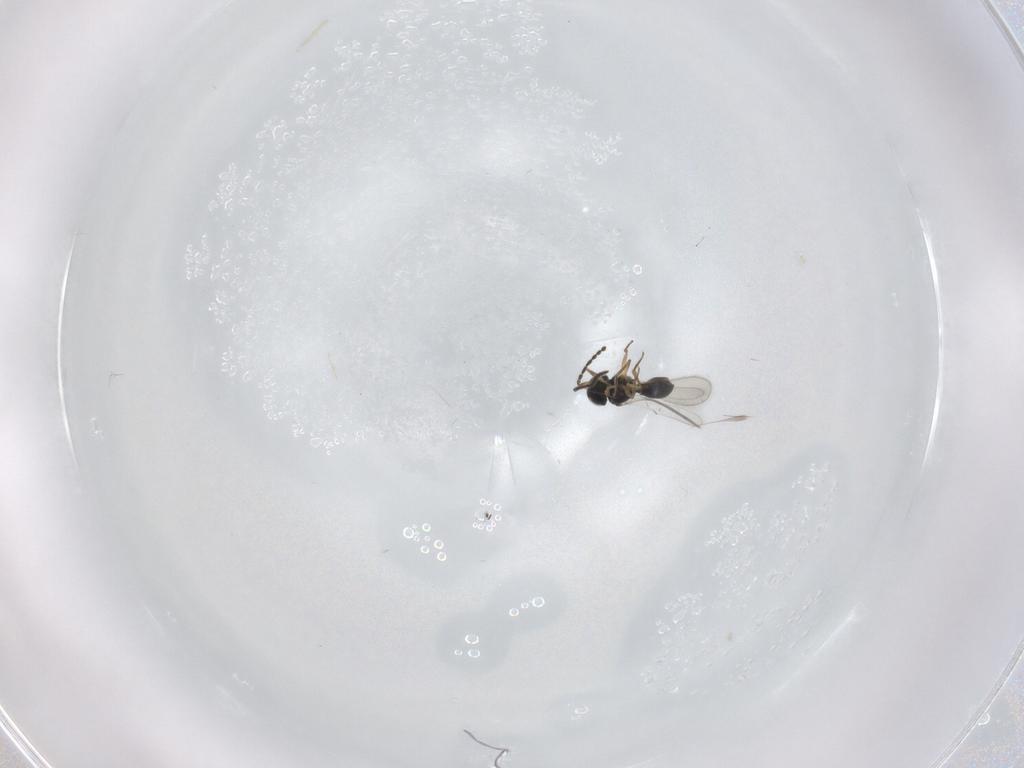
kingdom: Animalia
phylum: Arthropoda
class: Insecta
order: Hymenoptera
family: Scelionidae
